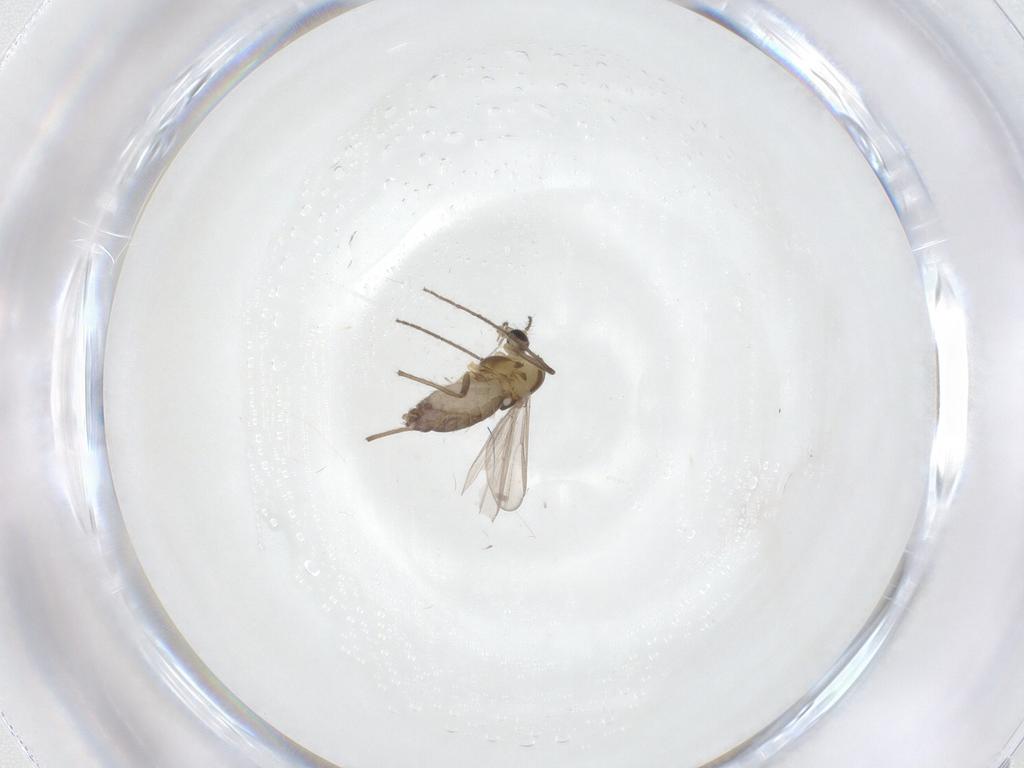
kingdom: Animalia
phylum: Arthropoda
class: Insecta
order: Diptera
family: Chironomidae
